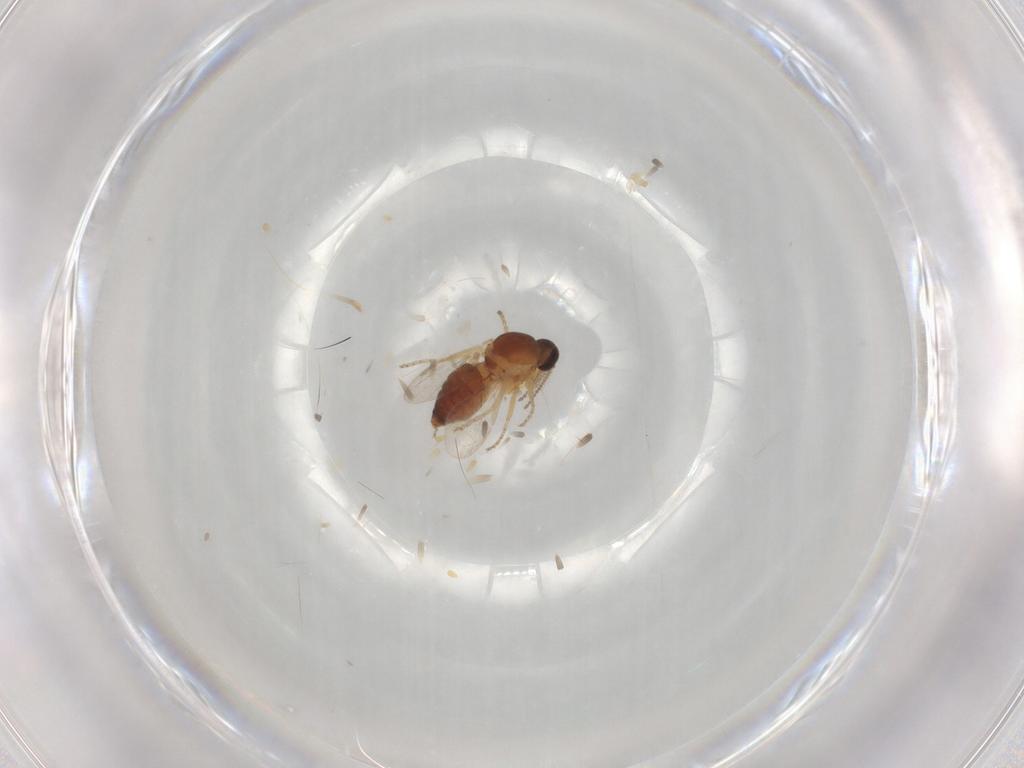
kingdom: Animalia
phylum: Arthropoda
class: Insecta
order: Diptera
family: Ceratopogonidae
